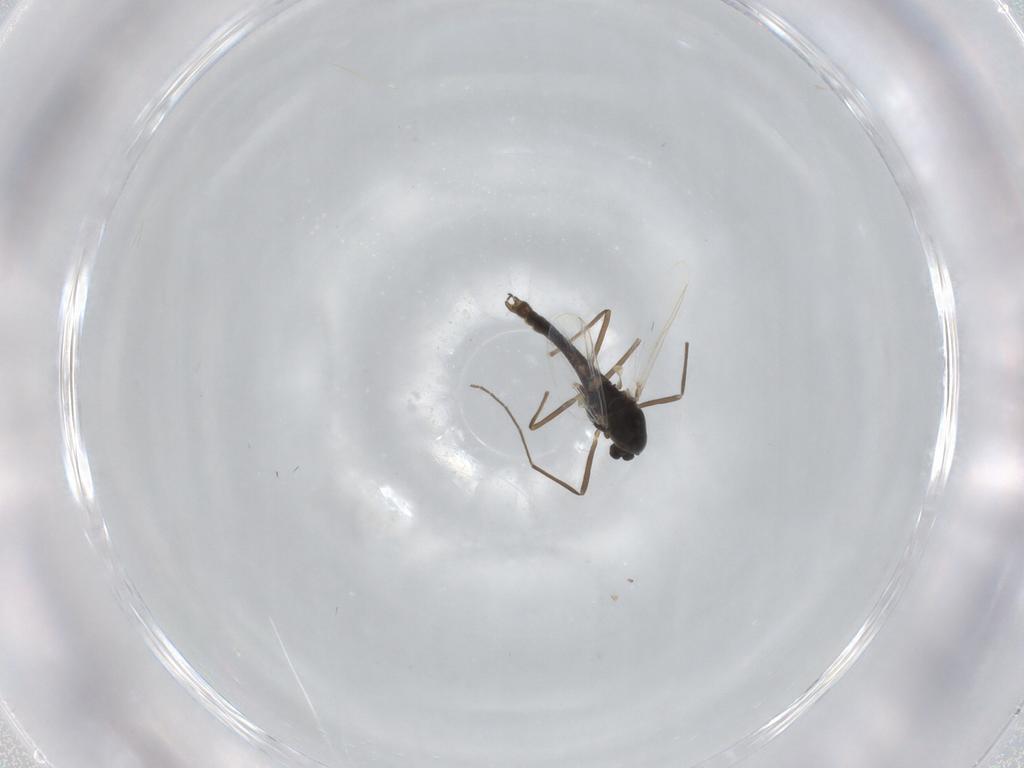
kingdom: Animalia
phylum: Arthropoda
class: Insecta
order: Diptera
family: Chironomidae
